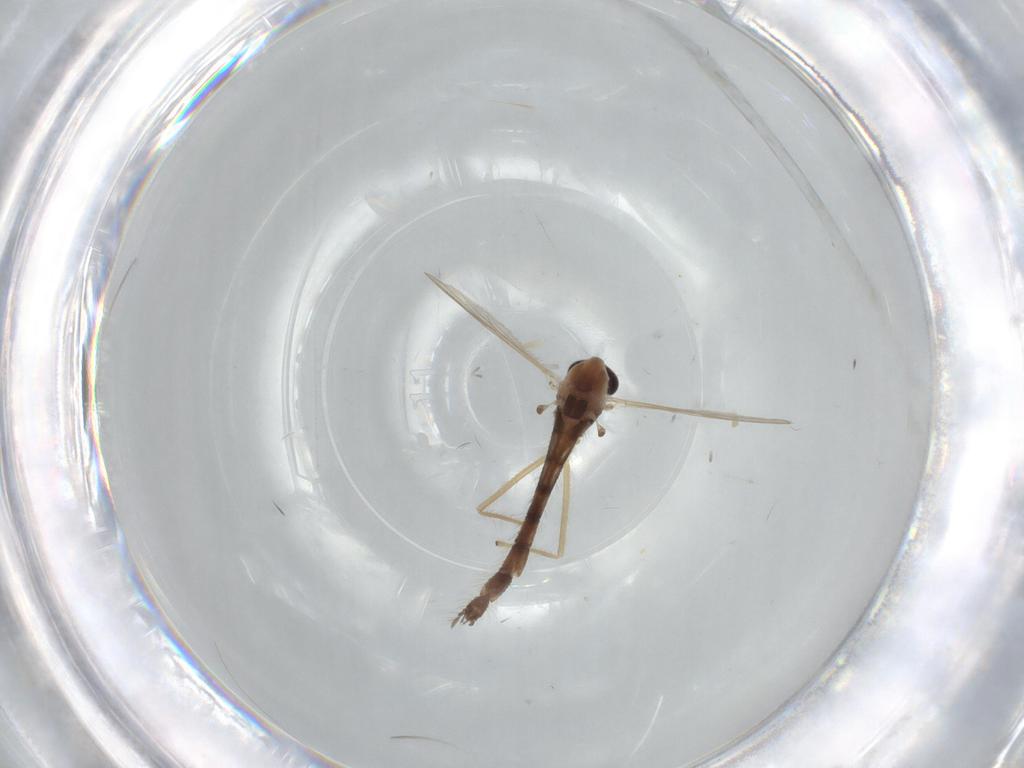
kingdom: Animalia
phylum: Arthropoda
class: Insecta
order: Diptera
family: Chironomidae
